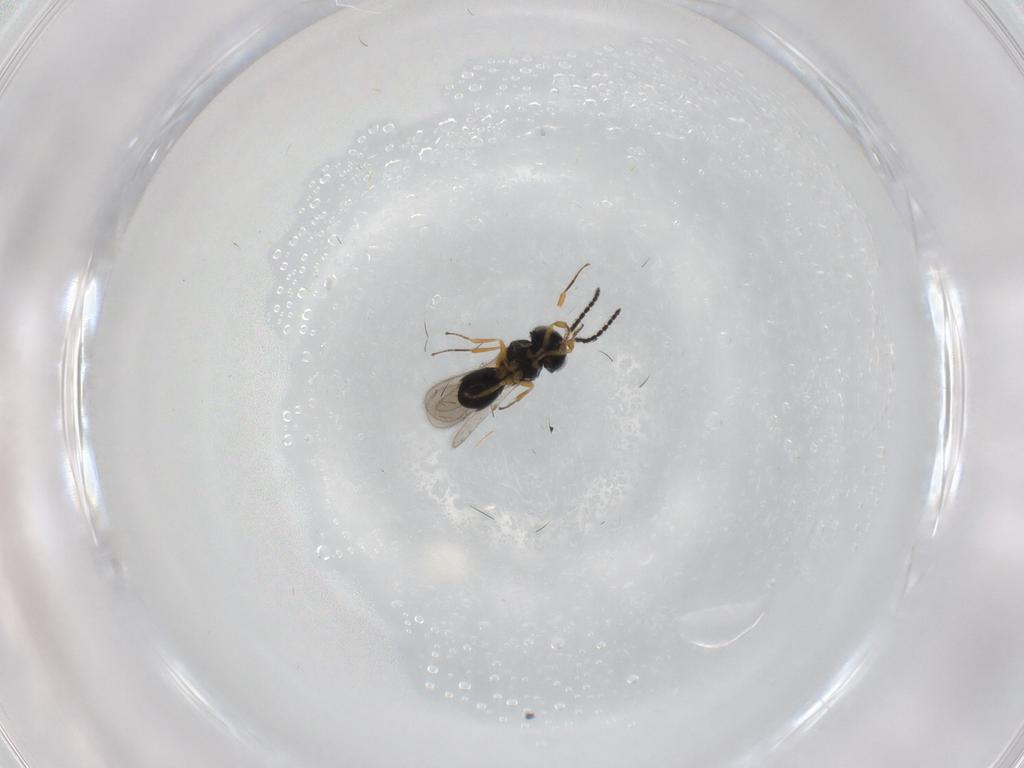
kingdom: Animalia
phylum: Arthropoda
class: Insecta
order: Hymenoptera
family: Scelionidae
